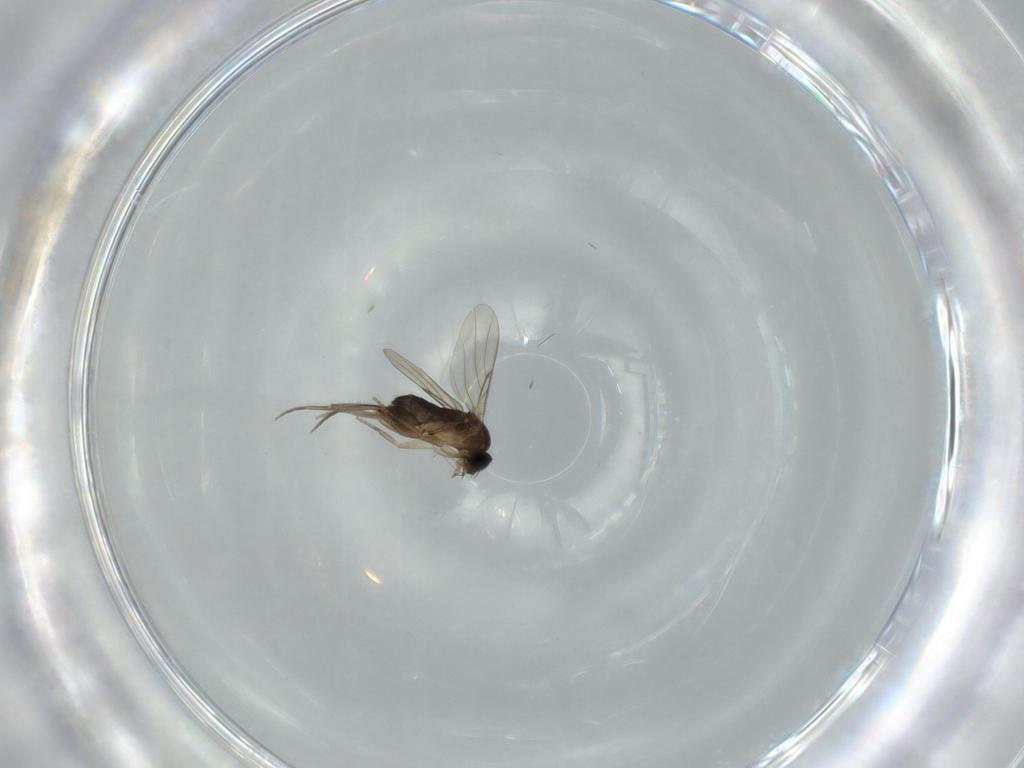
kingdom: Animalia
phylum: Arthropoda
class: Insecta
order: Diptera
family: Phoridae
